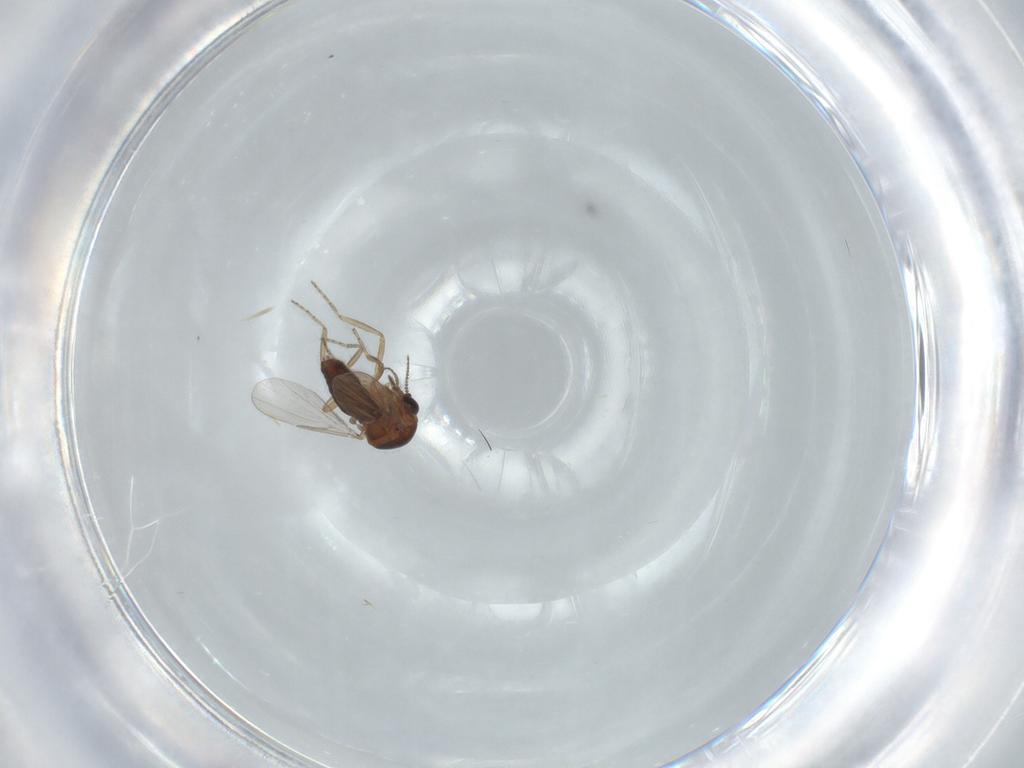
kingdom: Animalia
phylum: Arthropoda
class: Insecta
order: Diptera
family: Ceratopogonidae
